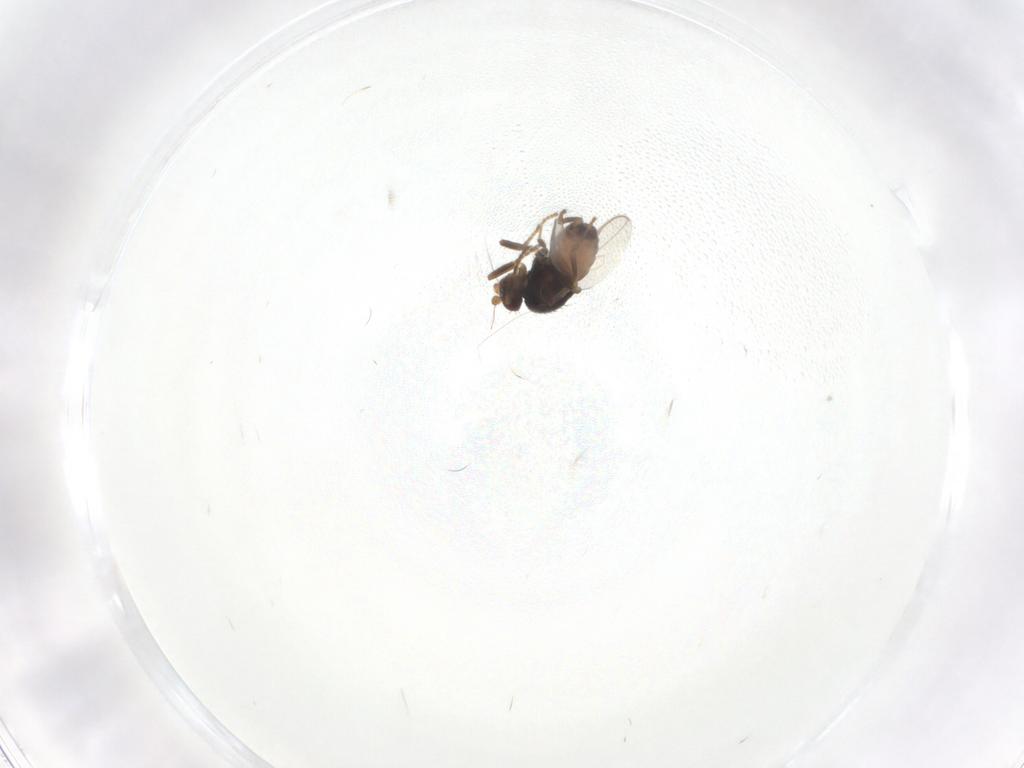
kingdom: Animalia
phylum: Arthropoda
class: Insecta
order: Diptera
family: Sphaeroceridae
